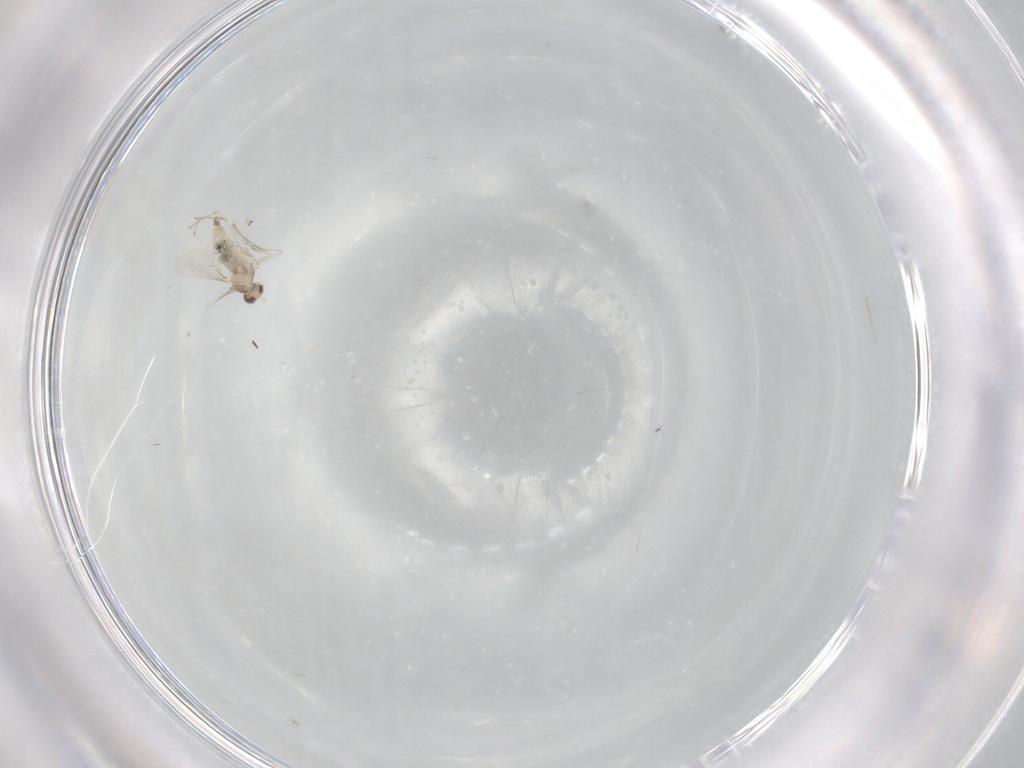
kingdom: Animalia
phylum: Arthropoda
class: Insecta
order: Diptera
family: Cecidomyiidae
